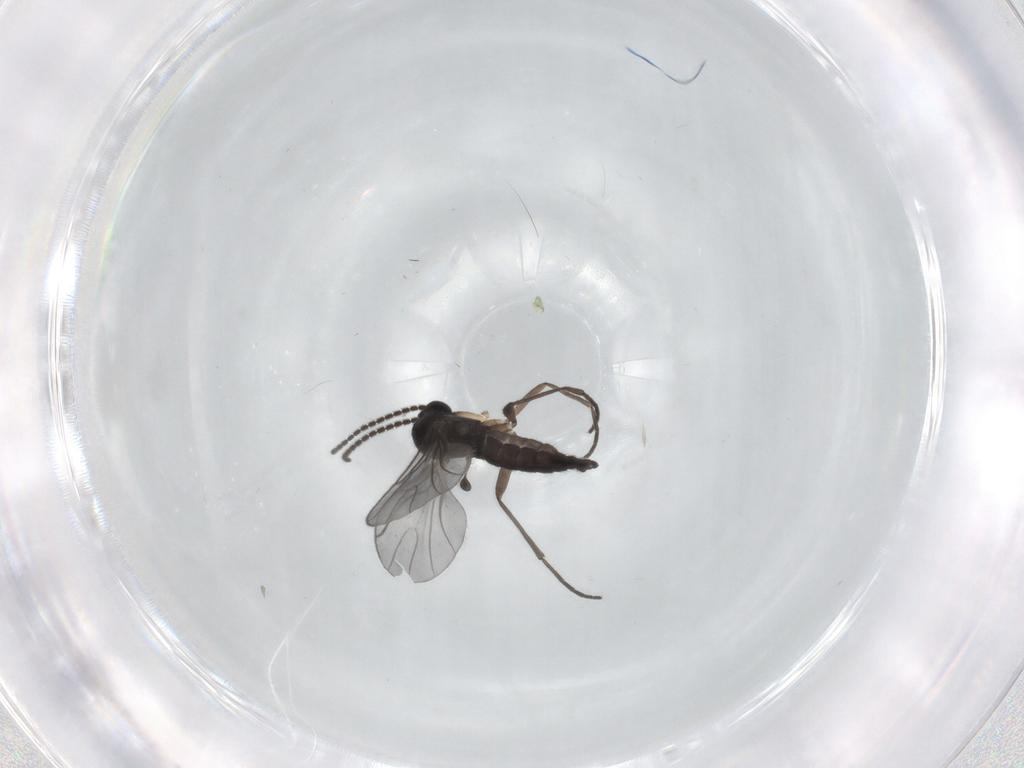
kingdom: Animalia
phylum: Arthropoda
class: Insecta
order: Diptera
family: Sciaridae
